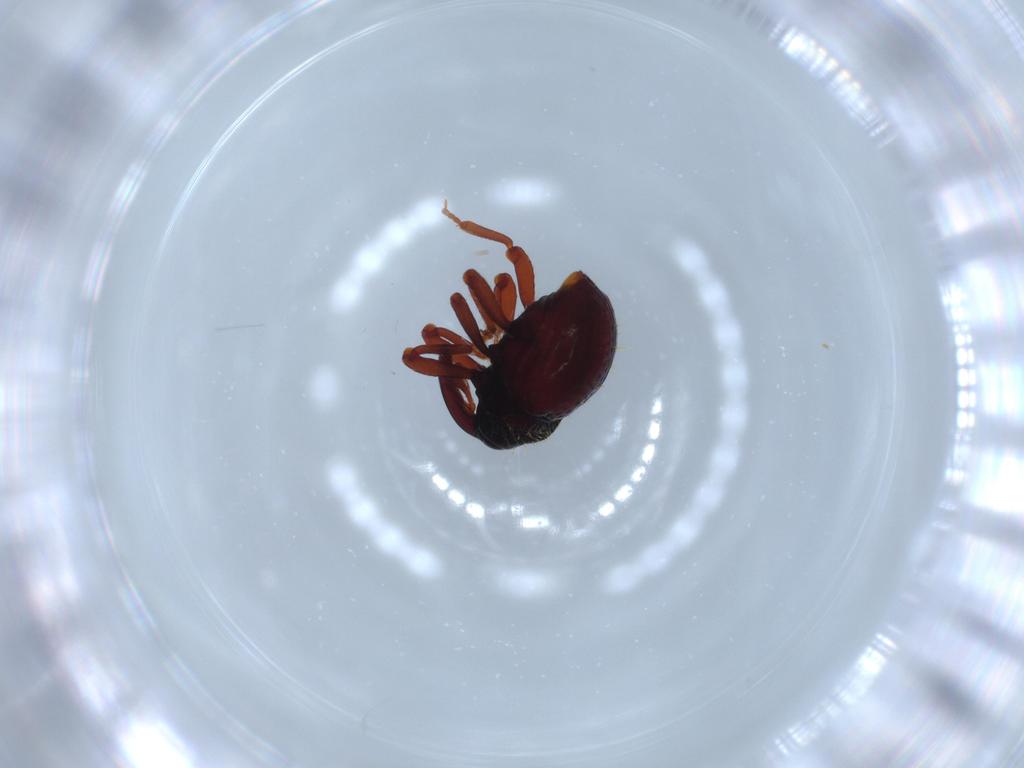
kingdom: Animalia
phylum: Arthropoda
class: Insecta
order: Coleoptera
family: Curculionidae
